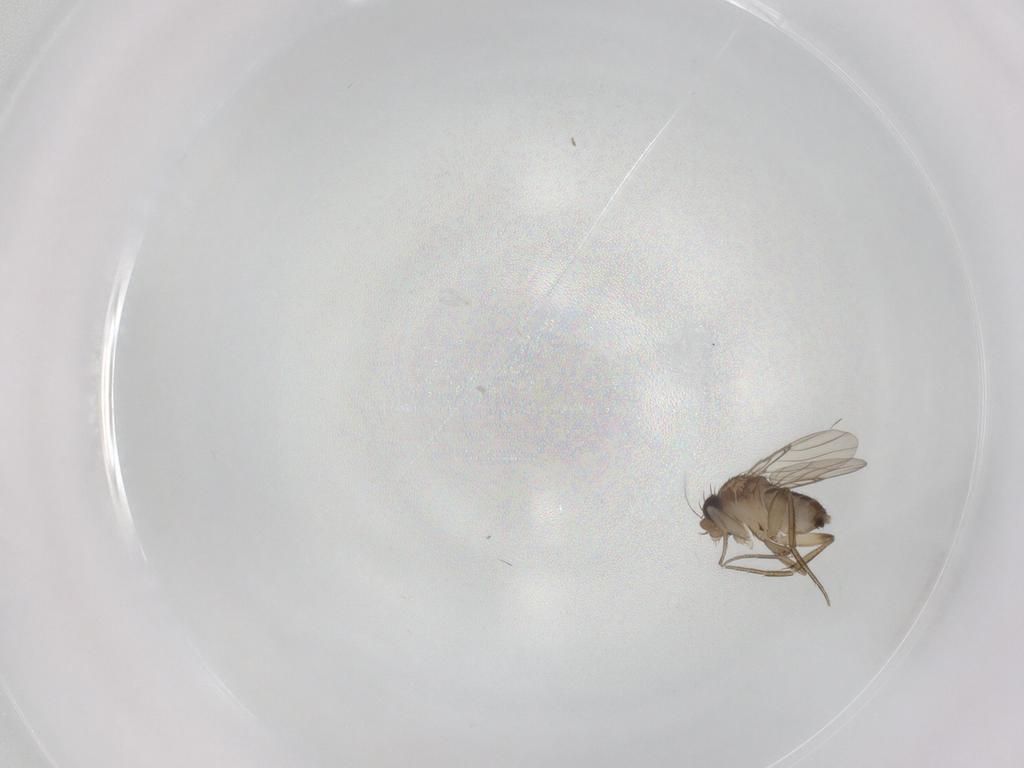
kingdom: Animalia
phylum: Arthropoda
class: Insecta
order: Diptera
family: Phoridae
